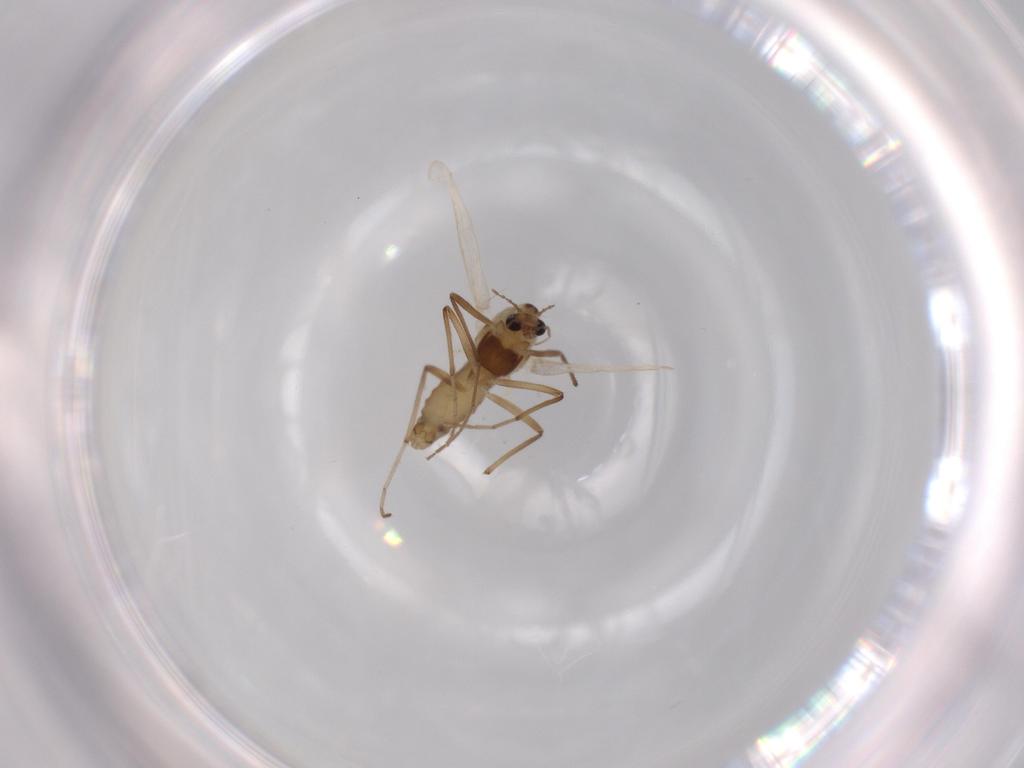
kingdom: Animalia
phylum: Arthropoda
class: Insecta
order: Diptera
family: Chironomidae
